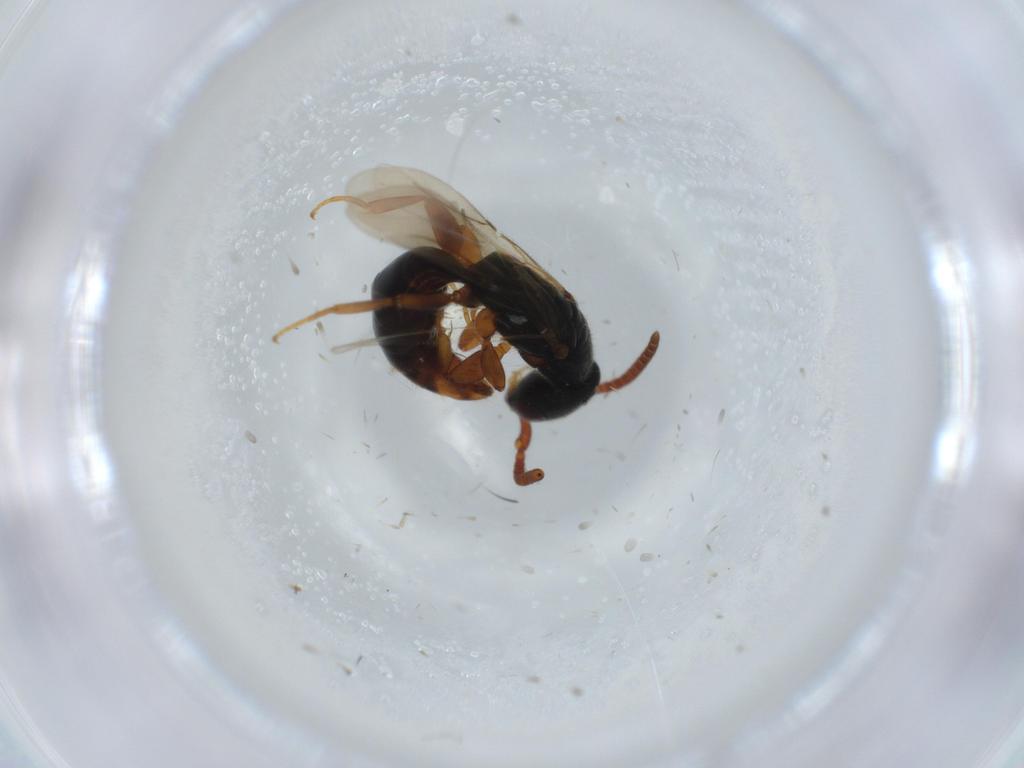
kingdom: Animalia
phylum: Arthropoda
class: Insecta
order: Hymenoptera
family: Bethylidae
